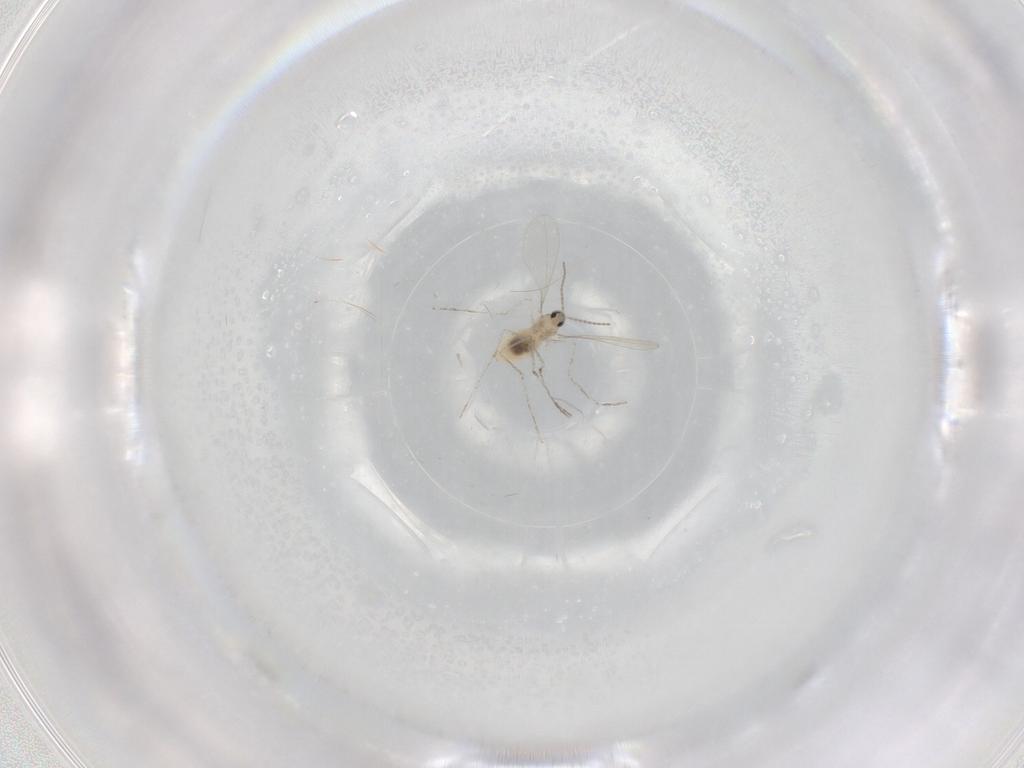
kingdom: Animalia
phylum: Arthropoda
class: Insecta
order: Diptera
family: Cecidomyiidae
